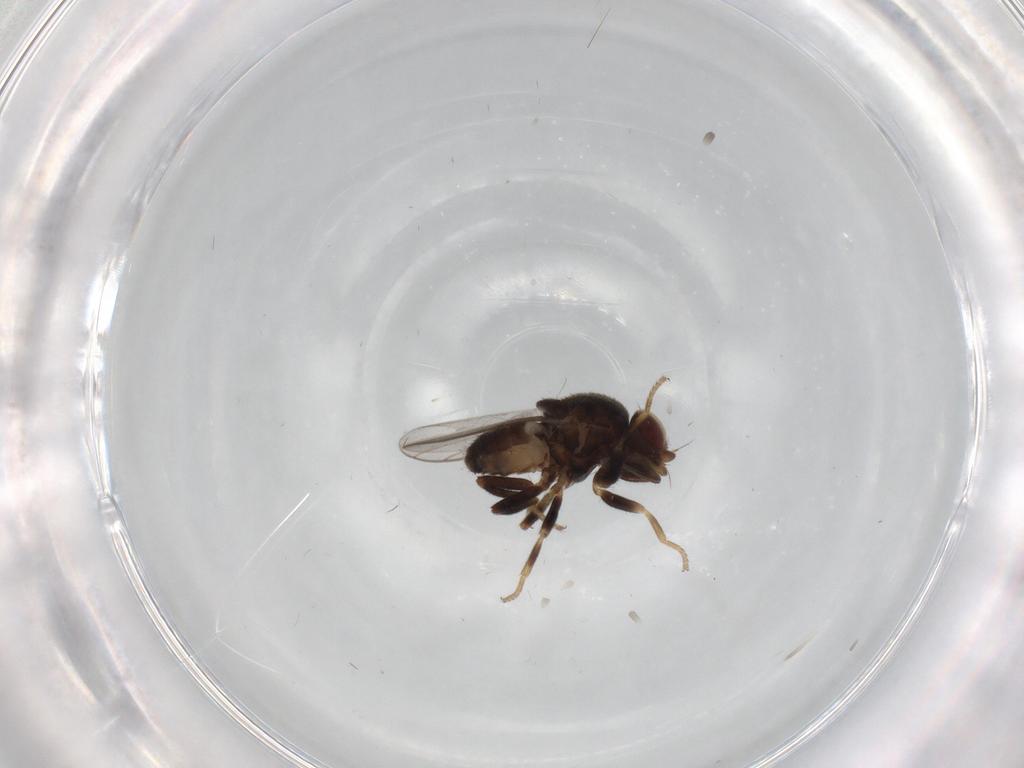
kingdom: Animalia
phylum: Arthropoda
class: Insecta
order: Diptera
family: Chloropidae
